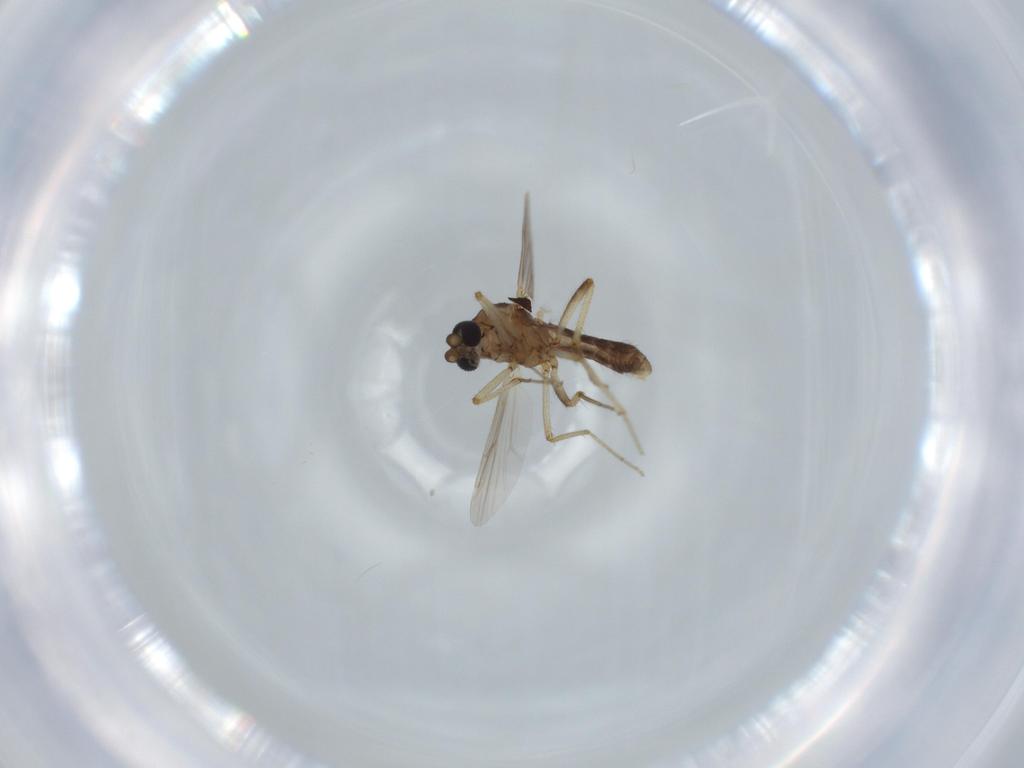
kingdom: Animalia
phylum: Arthropoda
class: Insecta
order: Diptera
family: Ceratopogonidae
